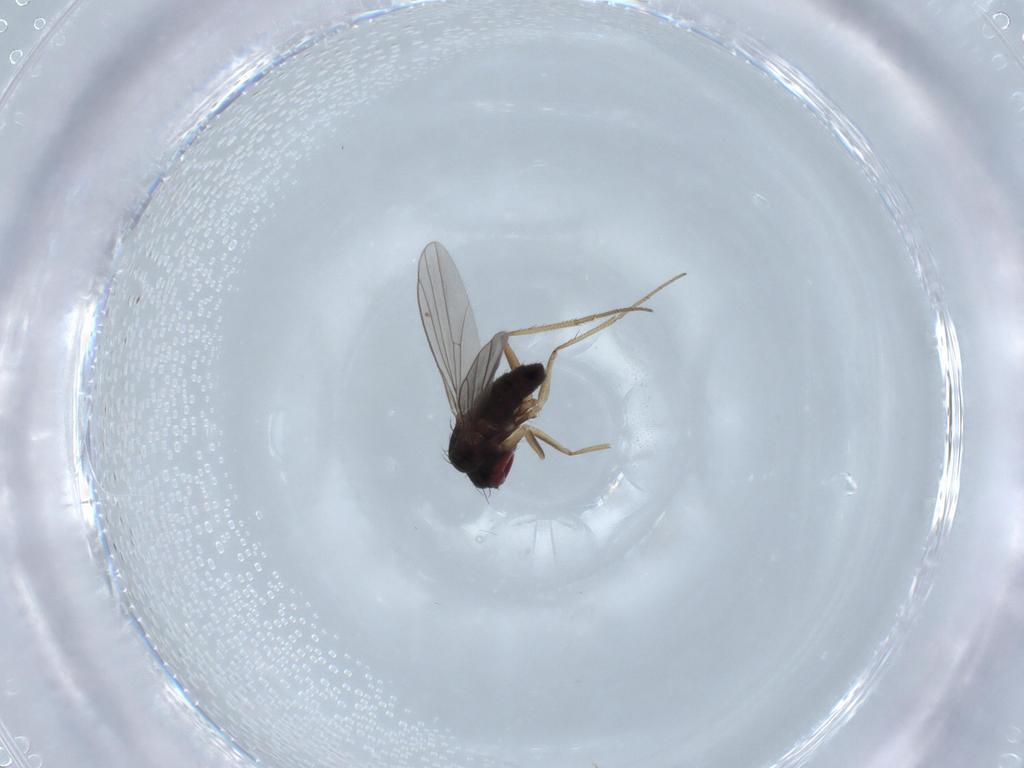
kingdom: Animalia
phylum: Arthropoda
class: Insecta
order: Diptera
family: Dolichopodidae
